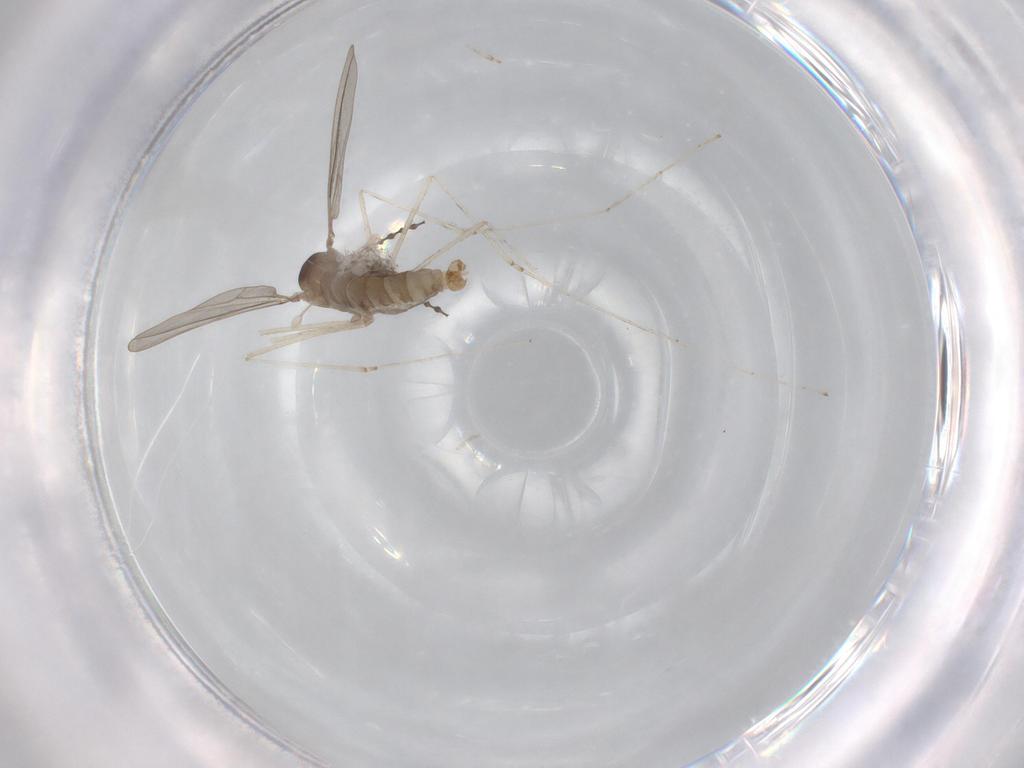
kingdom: Animalia
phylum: Arthropoda
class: Insecta
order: Diptera
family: Chironomidae
